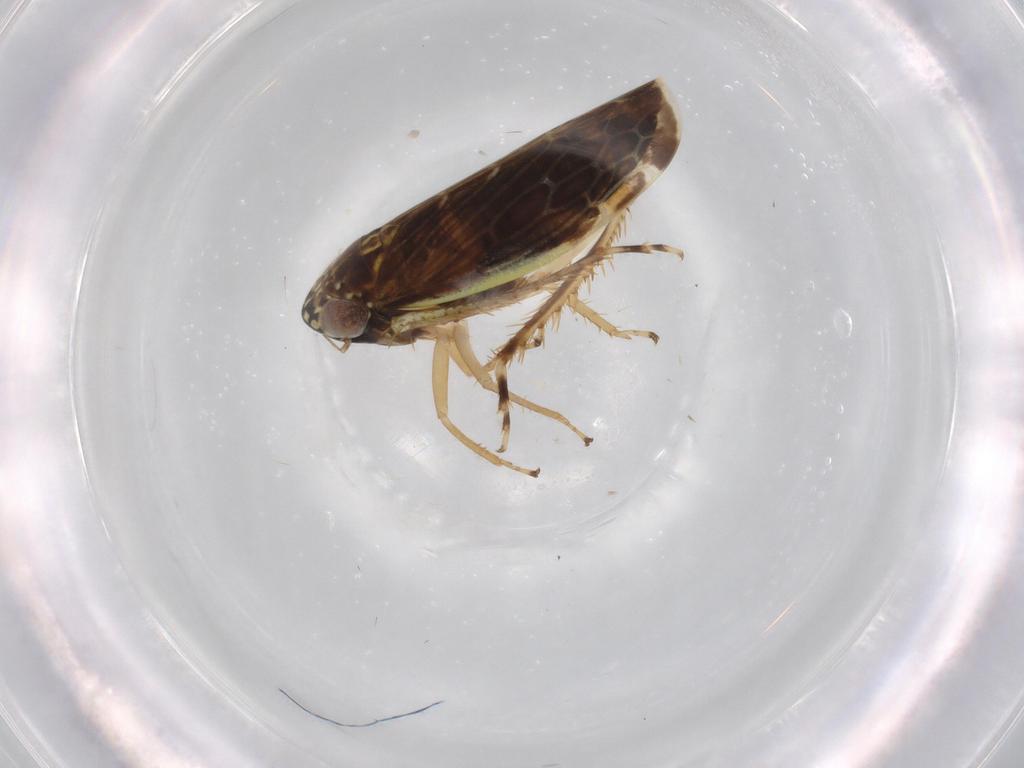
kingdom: Animalia
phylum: Arthropoda
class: Insecta
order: Hemiptera
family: Cicadellidae
